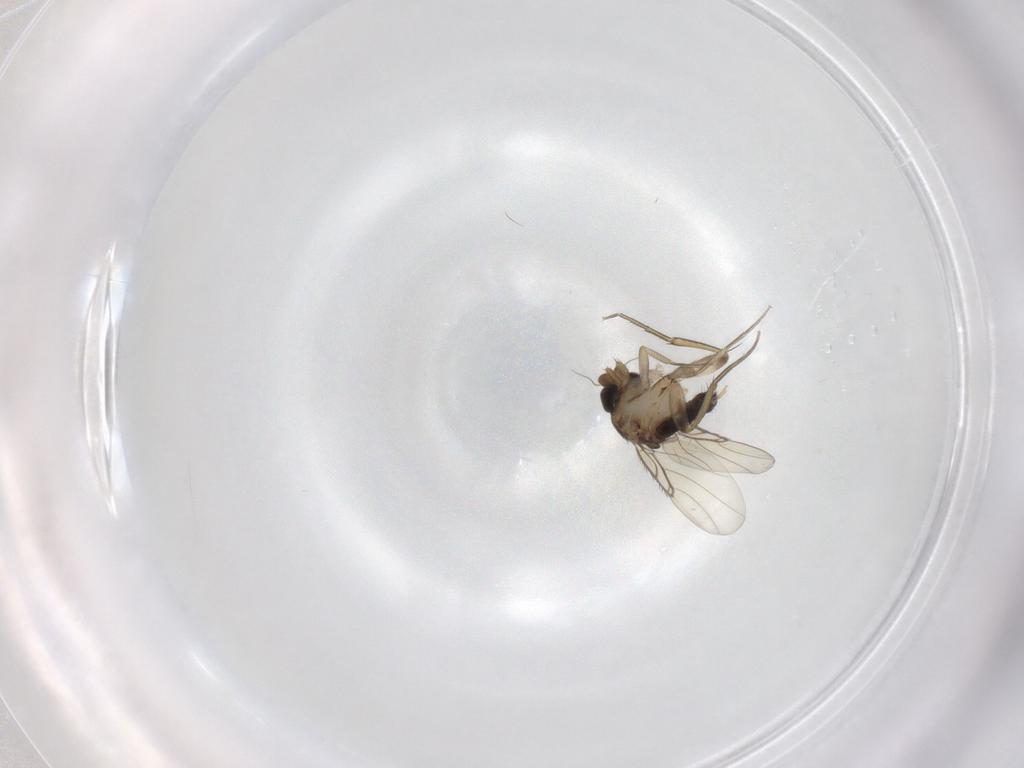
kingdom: Animalia
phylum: Arthropoda
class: Insecta
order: Diptera
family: Phoridae
